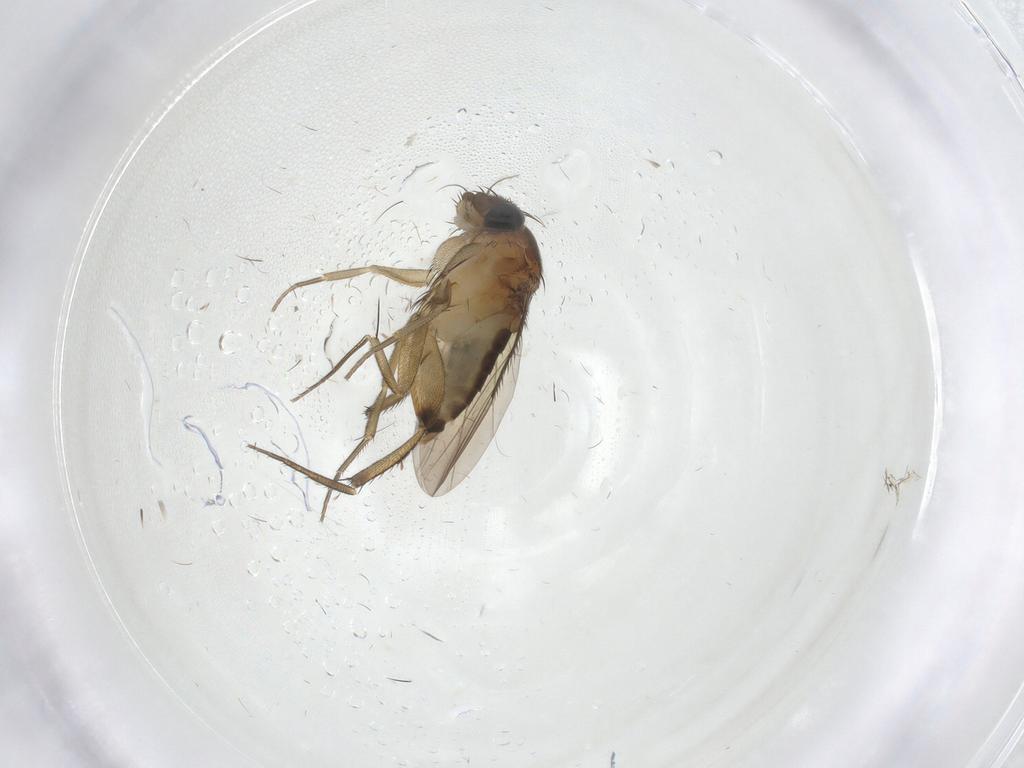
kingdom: Animalia
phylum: Arthropoda
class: Insecta
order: Diptera
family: Phoridae
